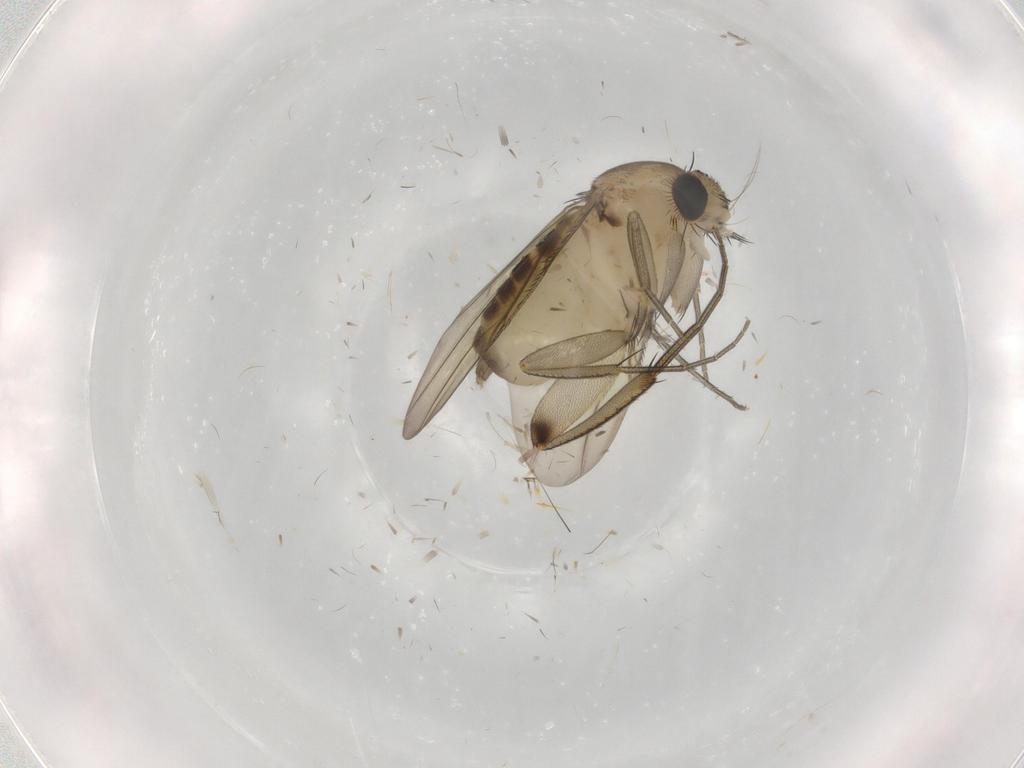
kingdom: Animalia
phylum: Arthropoda
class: Insecta
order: Diptera
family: Phoridae
